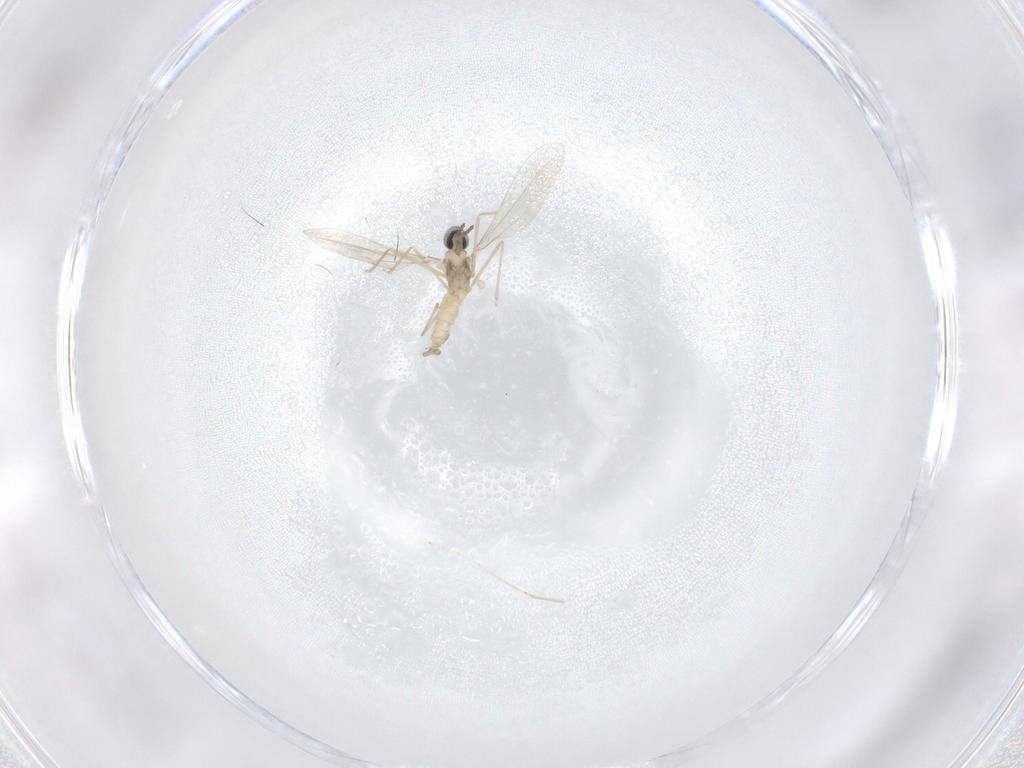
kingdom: Animalia
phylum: Arthropoda
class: Insecta
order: Diptera
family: Cecidomyiidae
